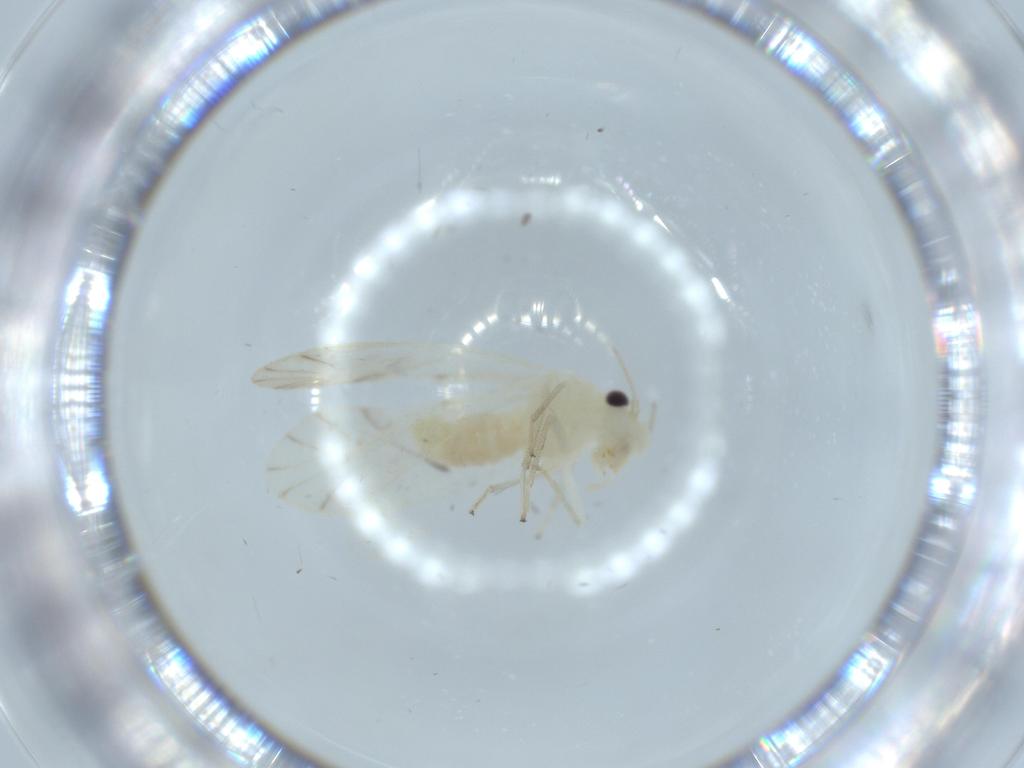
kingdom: Animalia
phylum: Arthropoda
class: Insecta
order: Psocodea
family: Caeciliusidae
